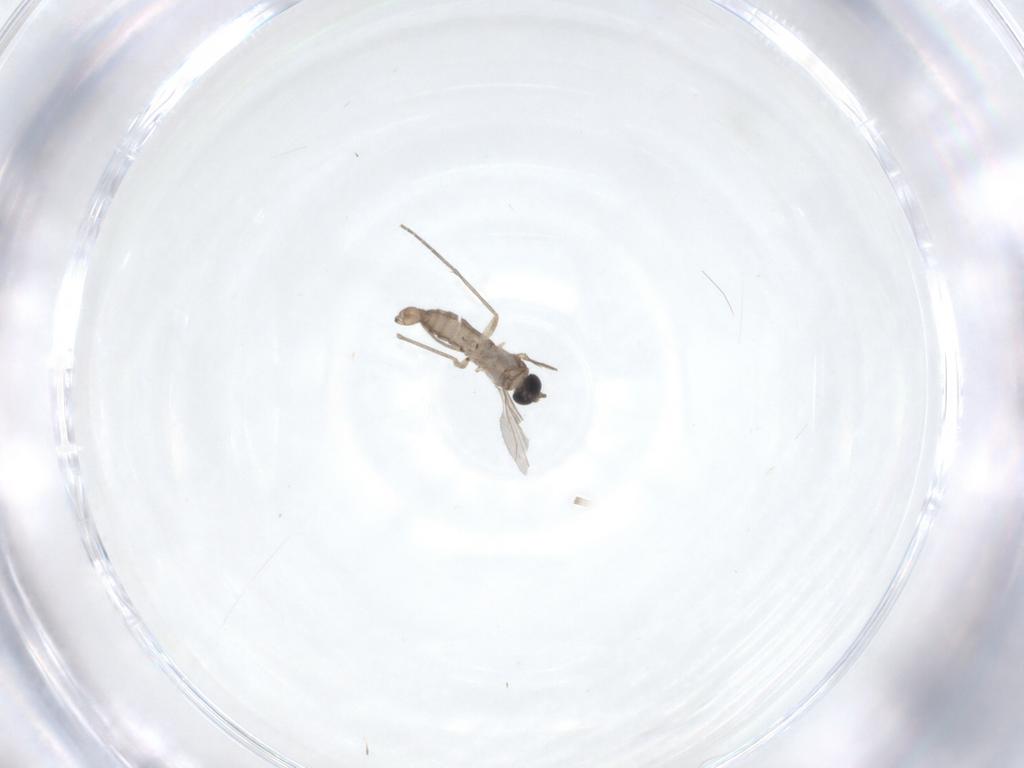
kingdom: Animalia
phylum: Arthropoda
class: Insecta
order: Diptera
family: Sciaridae
